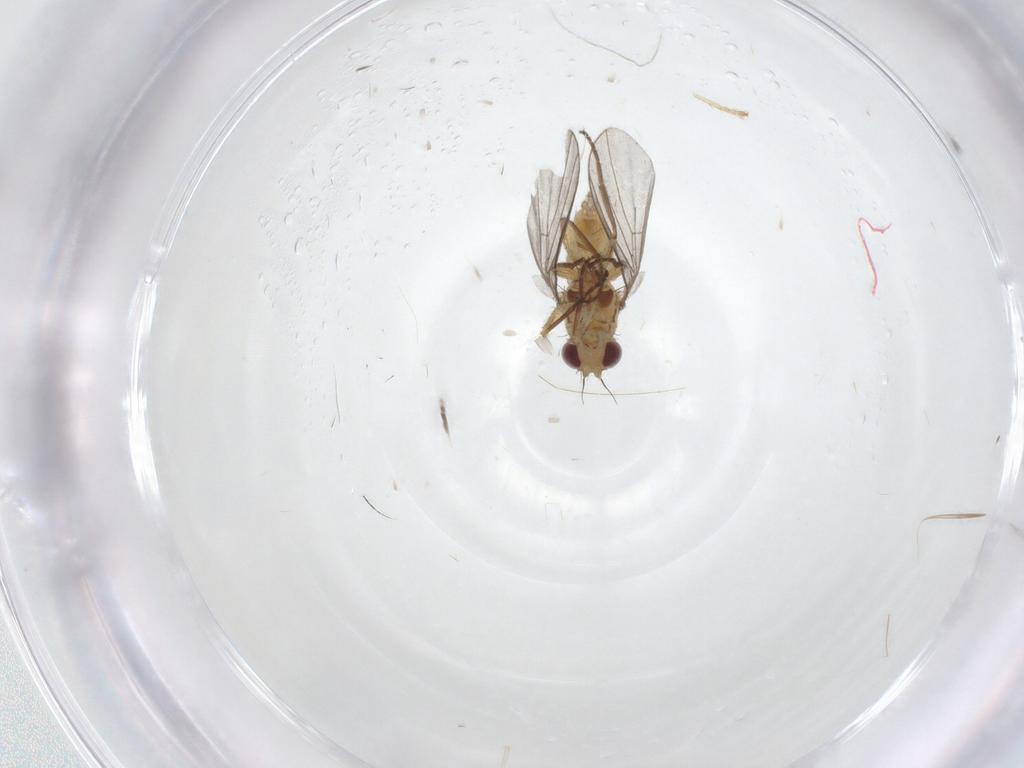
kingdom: Animalia
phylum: Arthropoda
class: Insecta
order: Diptera
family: Agromyzidae
